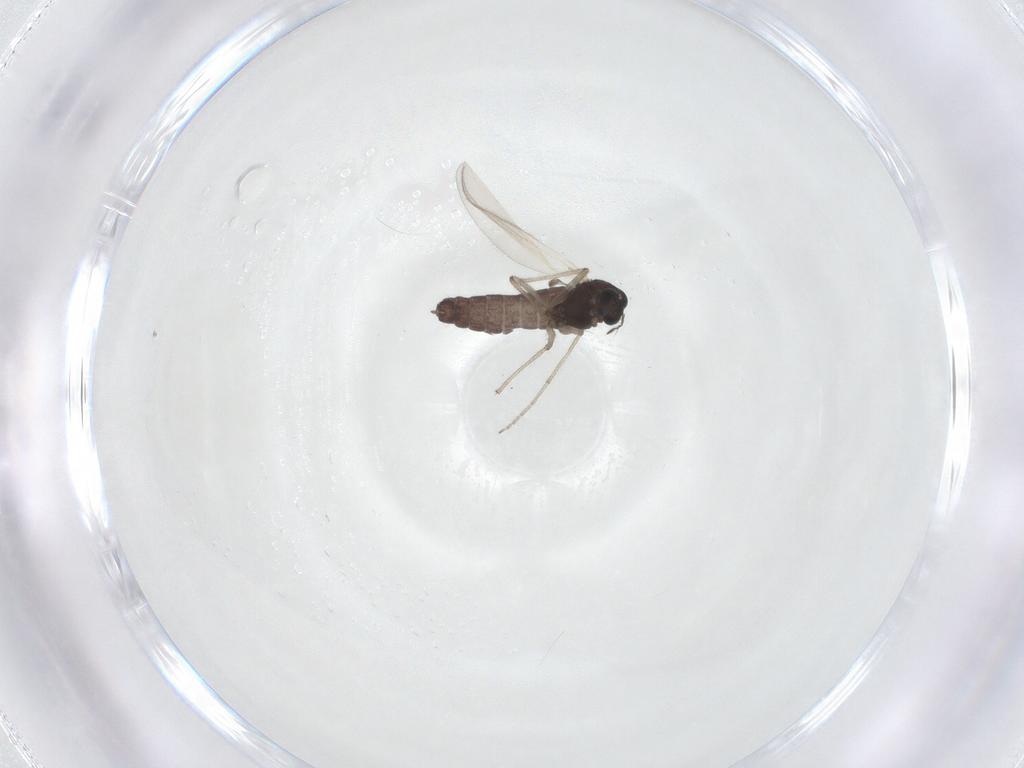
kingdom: Animalia
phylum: Arthropoda
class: Insecta
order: Diptera
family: Chironomidae
